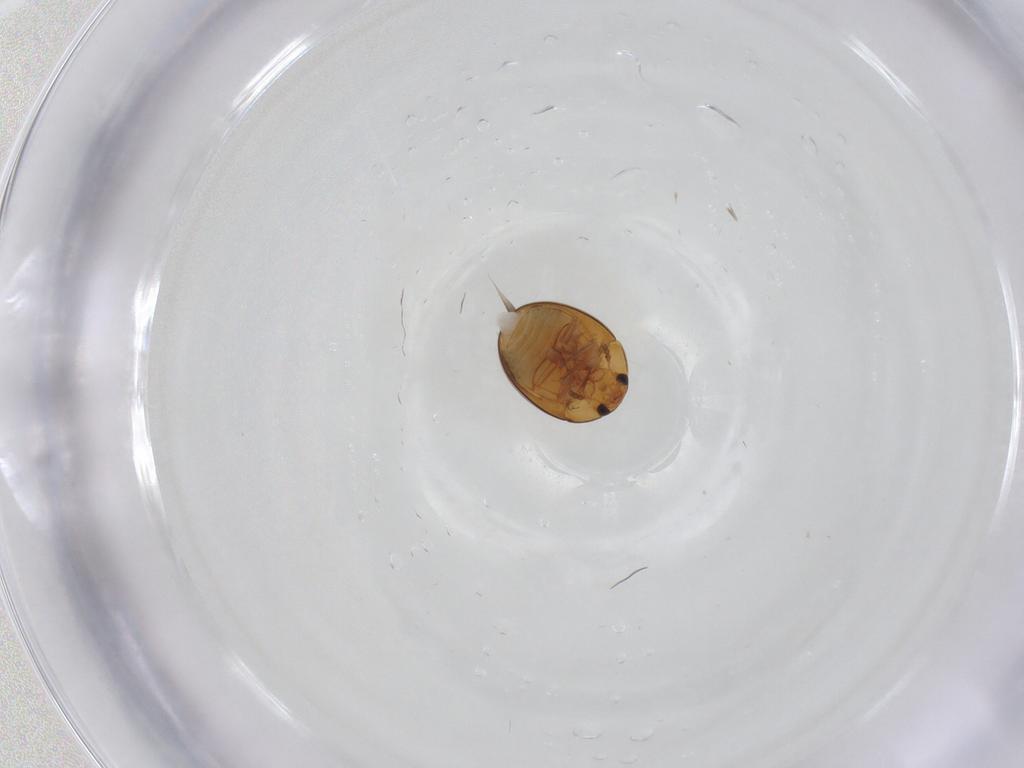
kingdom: Animalia
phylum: Arthropoda
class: Insecta
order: Coleoptera
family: Phalacridae
